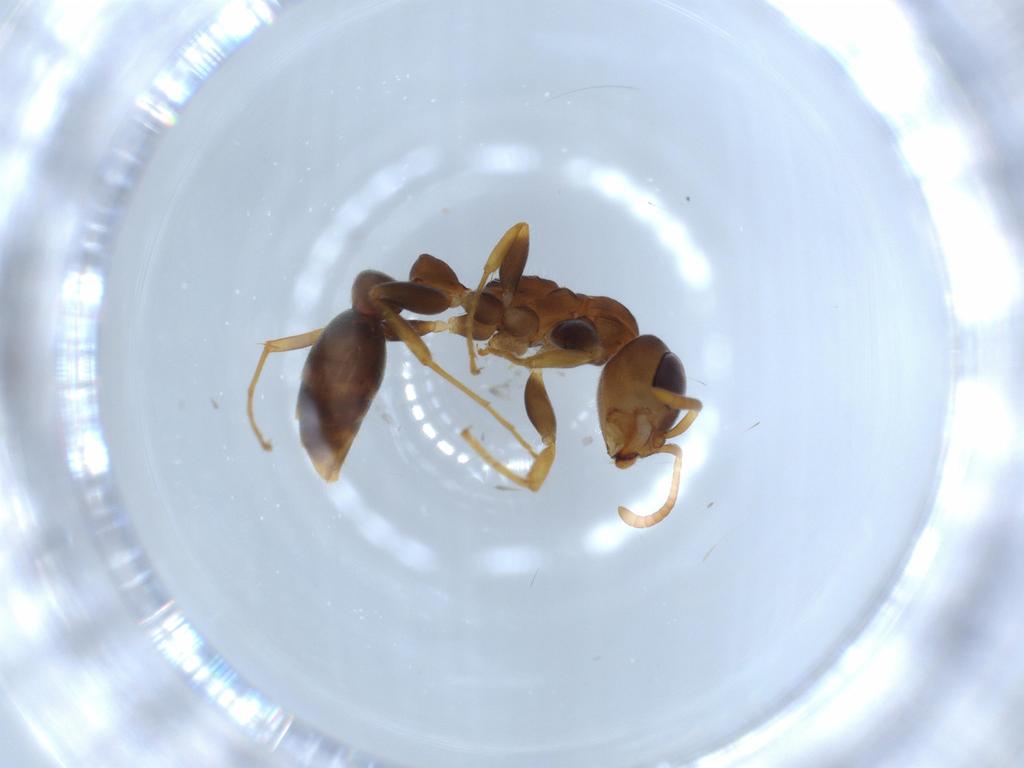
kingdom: Animalia
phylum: Arthropoda
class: Insecta
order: Hymenoptera
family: Formicidae
